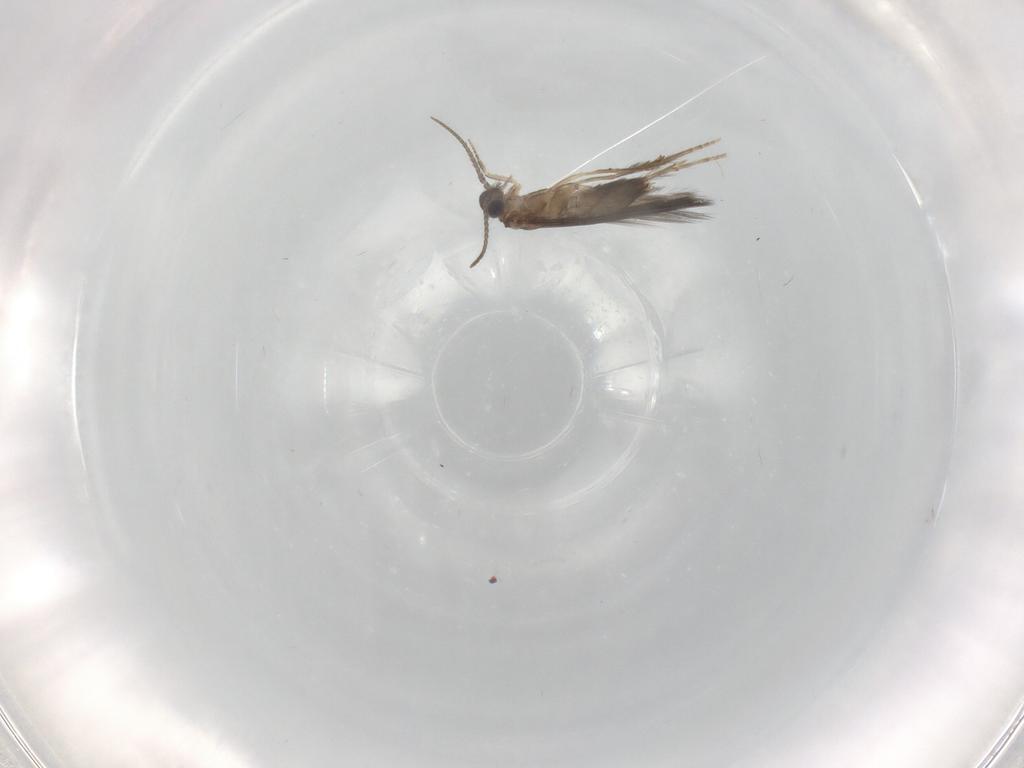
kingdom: Animalia
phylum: Arthropoda
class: Insecta
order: Trichoptera
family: Hydroptilidae
